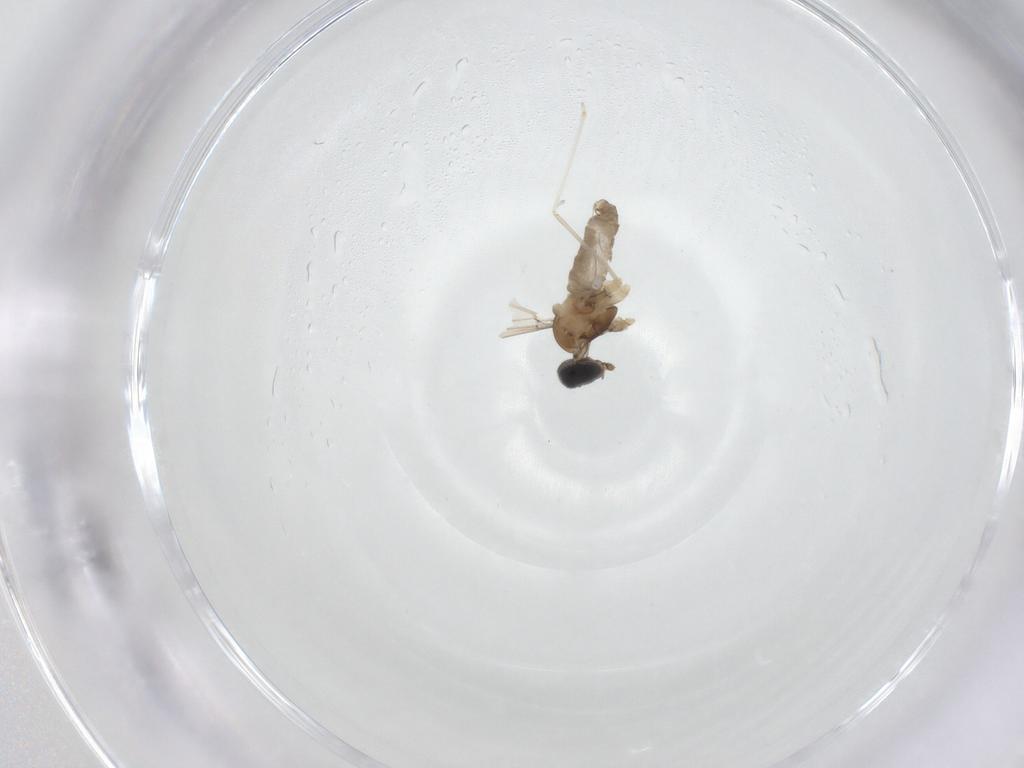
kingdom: Animalia
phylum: Arthropoda
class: Insecta
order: Diptera
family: Cecidomyiidae
